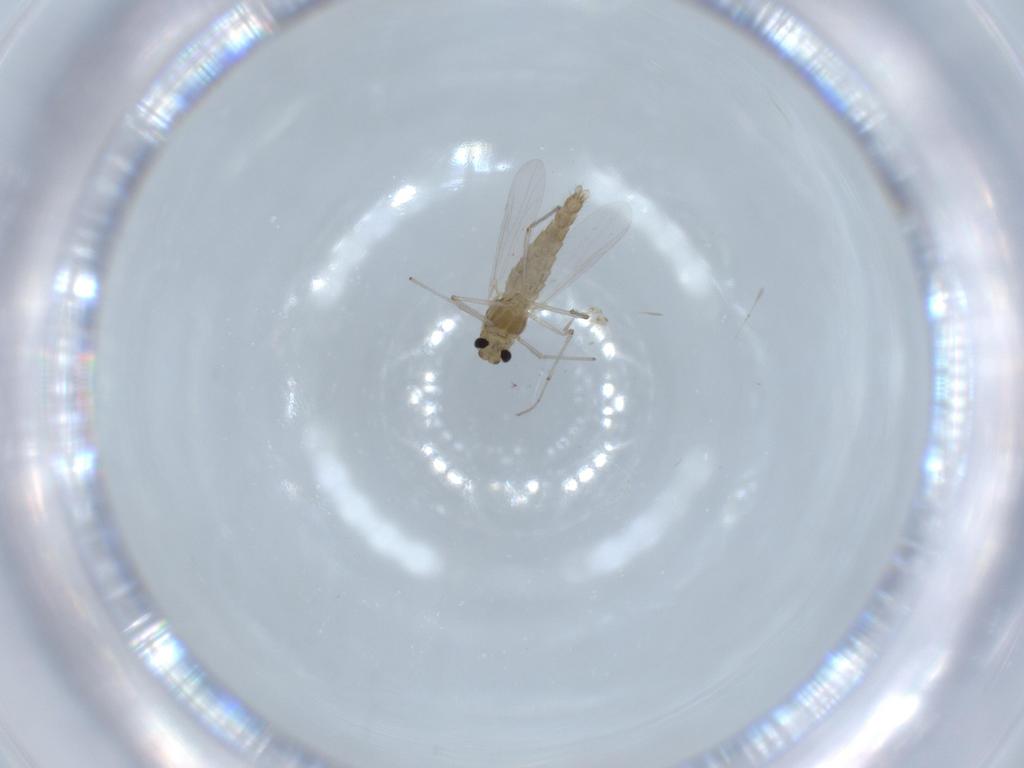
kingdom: Animalia
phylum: Arthropoda
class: Insecta
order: Diptera
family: Chironomidae
